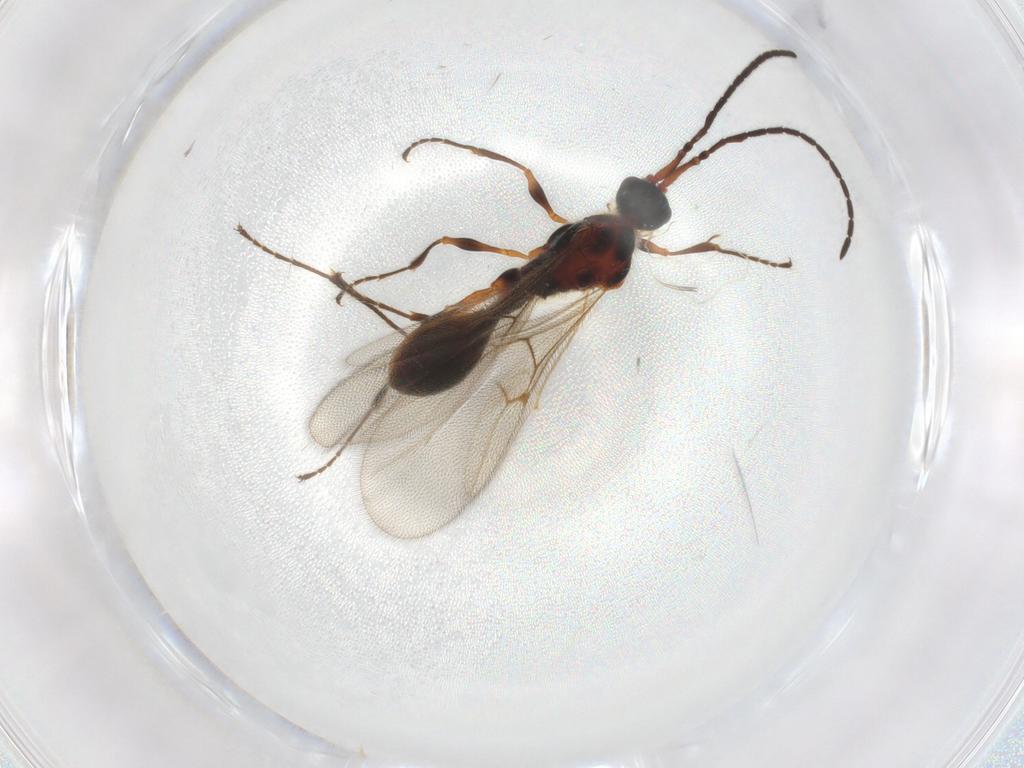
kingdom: Animalia
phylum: Arthropoda
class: Insecta
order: Hymenoptera
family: Diapriidae
